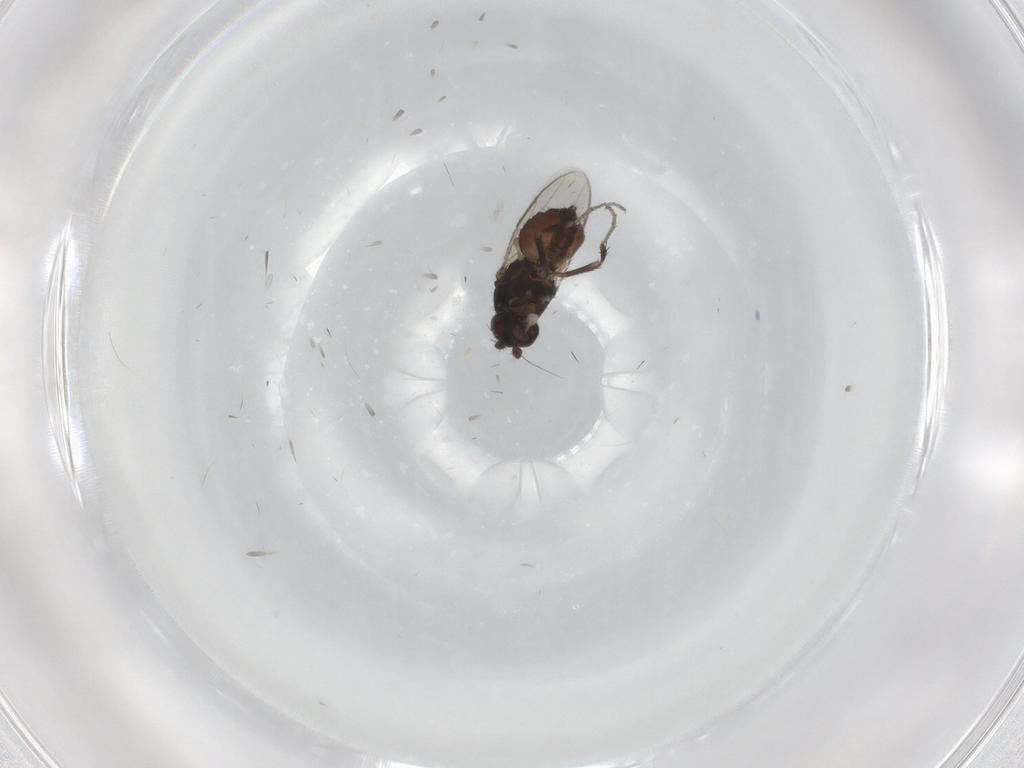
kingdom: Animalia
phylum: Arthropoda
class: Insecta
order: Diptera
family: Sphaeroceridae
